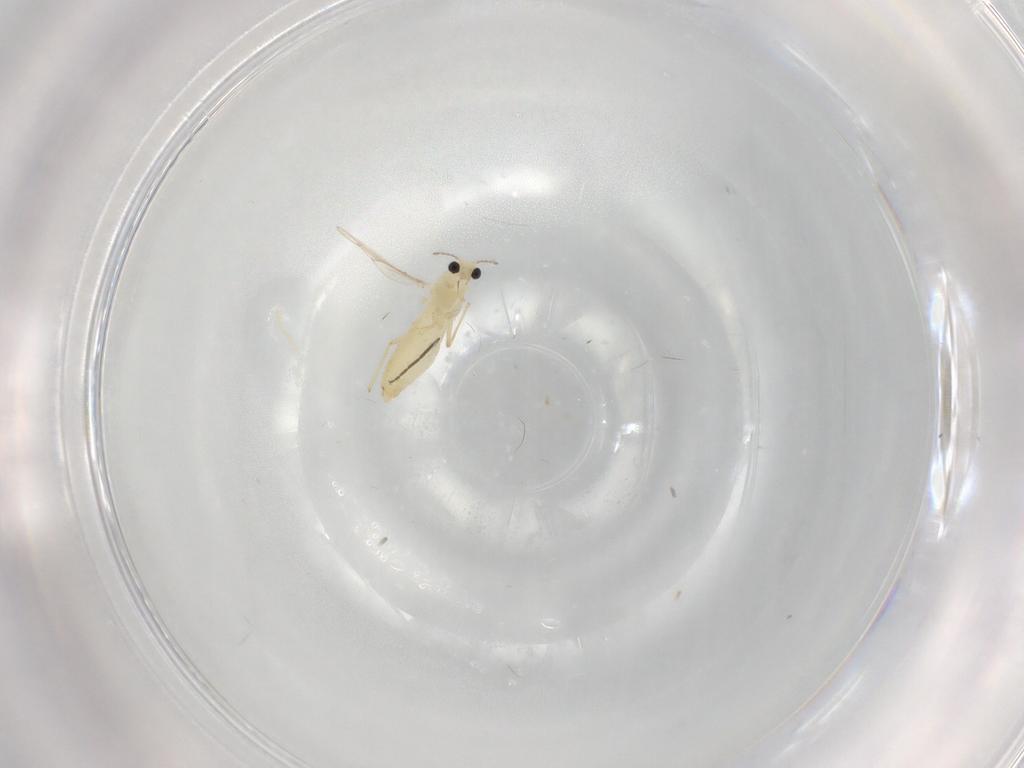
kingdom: Animalia
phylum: Arthropoda
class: Insecta
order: Diptera
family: Chironomidae
